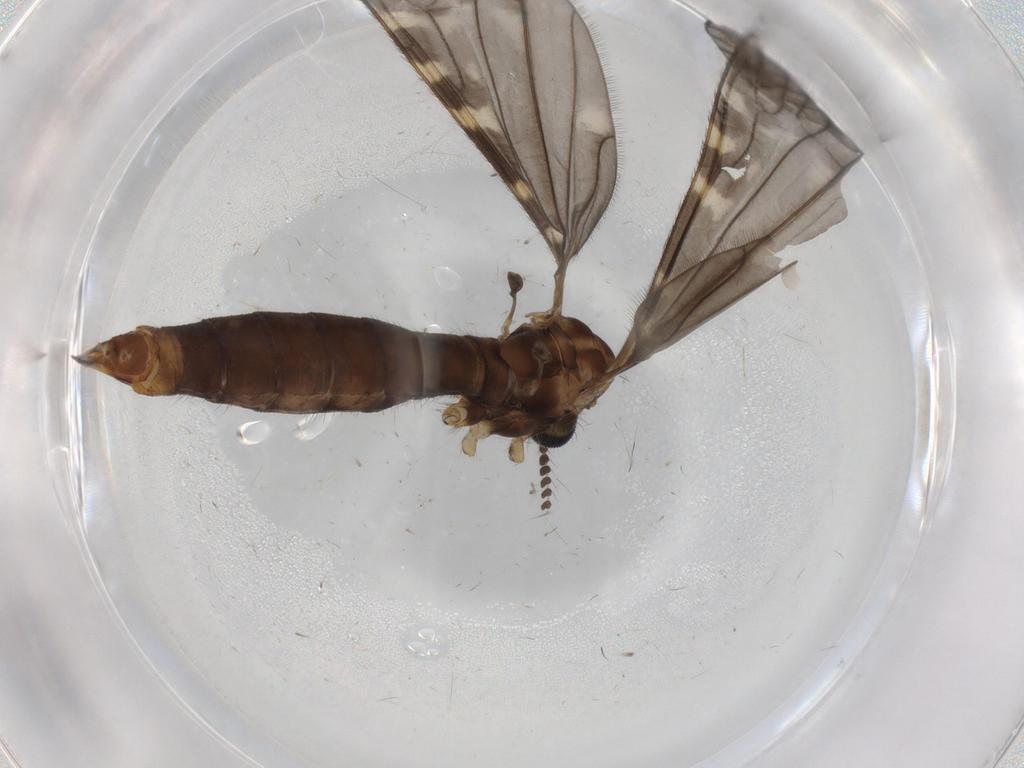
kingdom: Animalia
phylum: Arthropoda
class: Insecta
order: Diptera
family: Limoniidae
